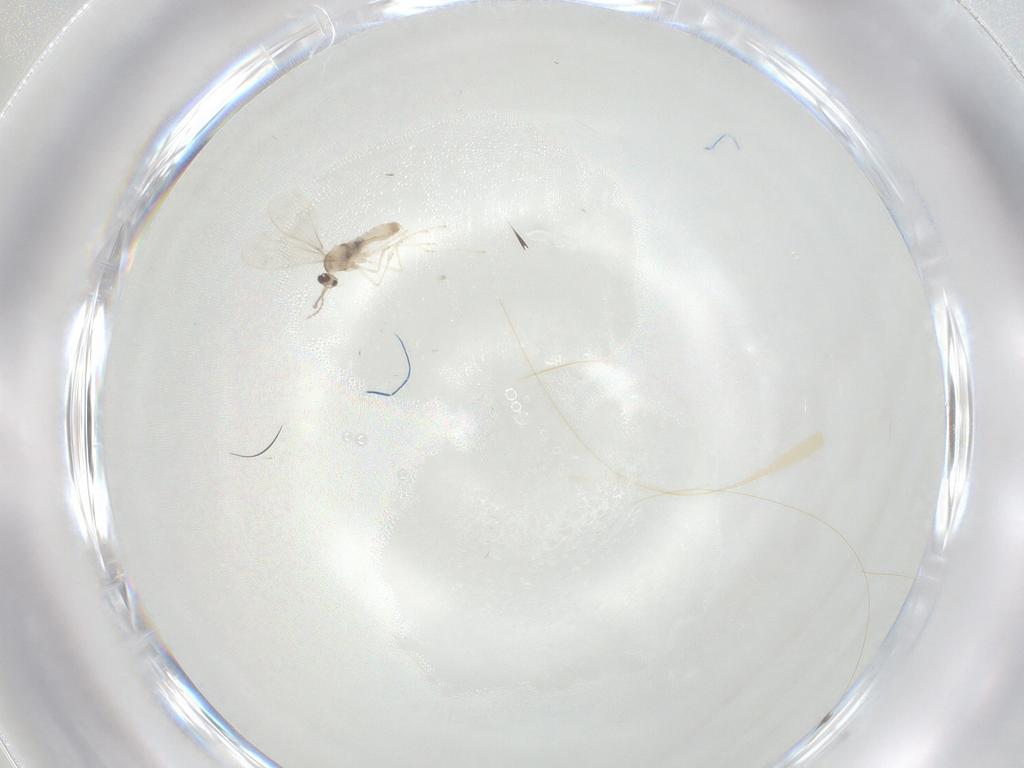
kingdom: Animalia
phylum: Arthropoda
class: Insecta
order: Diptera
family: Cecidomyiidae
